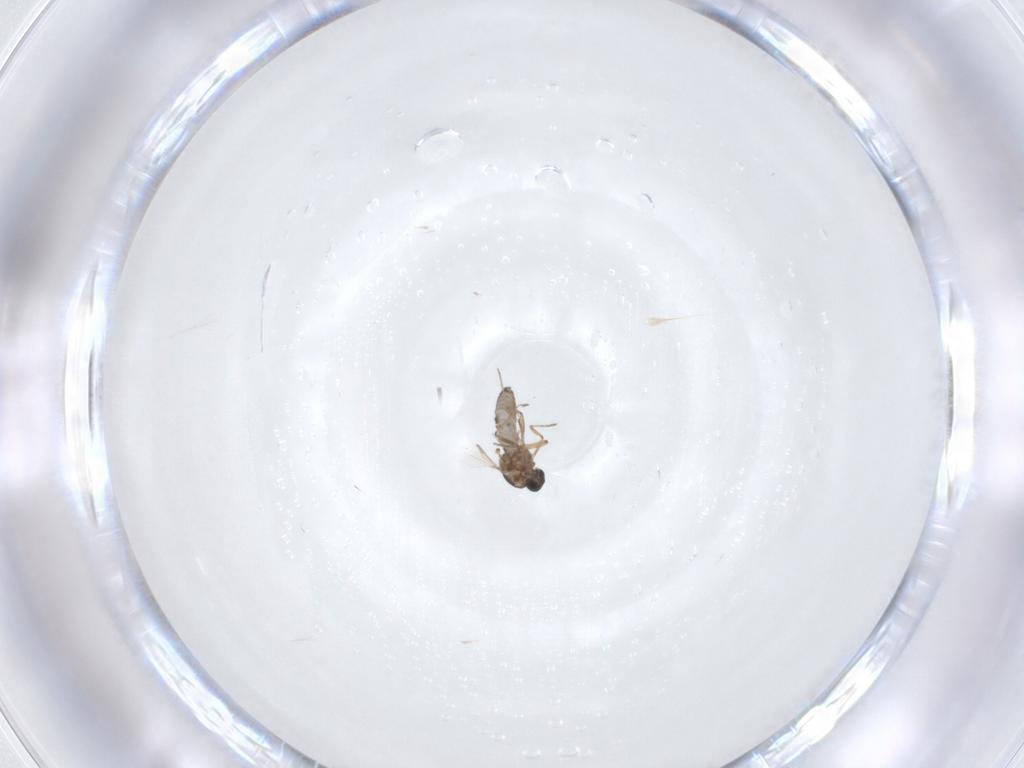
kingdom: Animalia
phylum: Arthropoda
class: Insecta
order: Diptera
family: Ceratopogonidae
